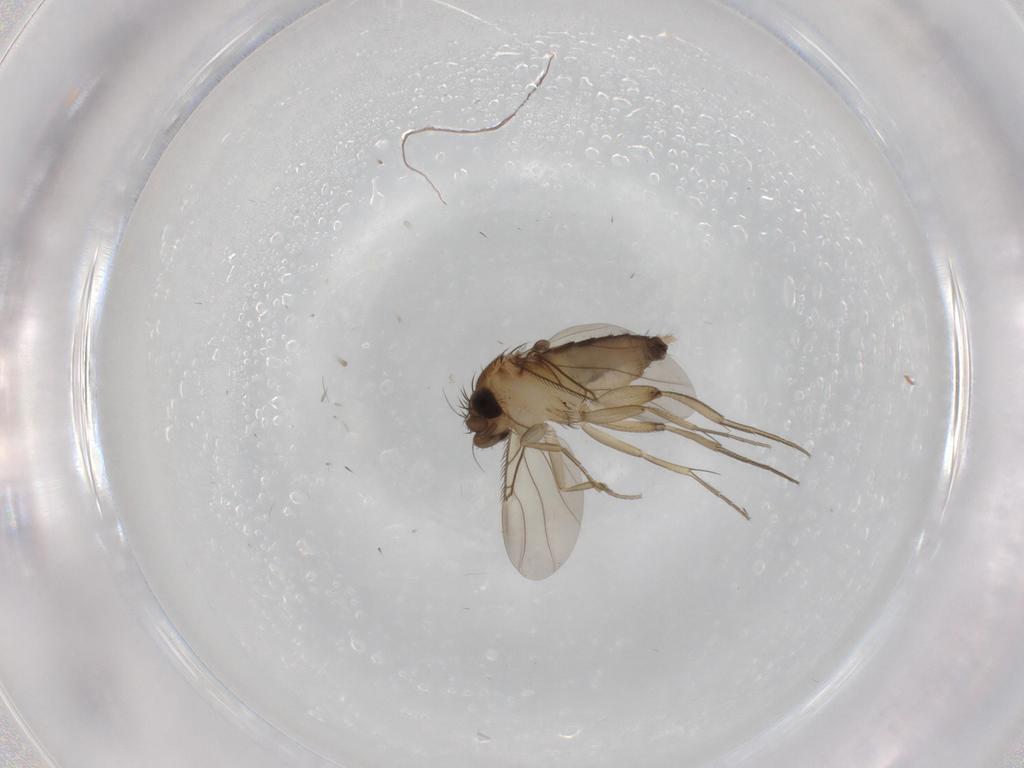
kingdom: Animalia
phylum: Arthropoda
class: Insecta
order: Diptera
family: Phoridae
